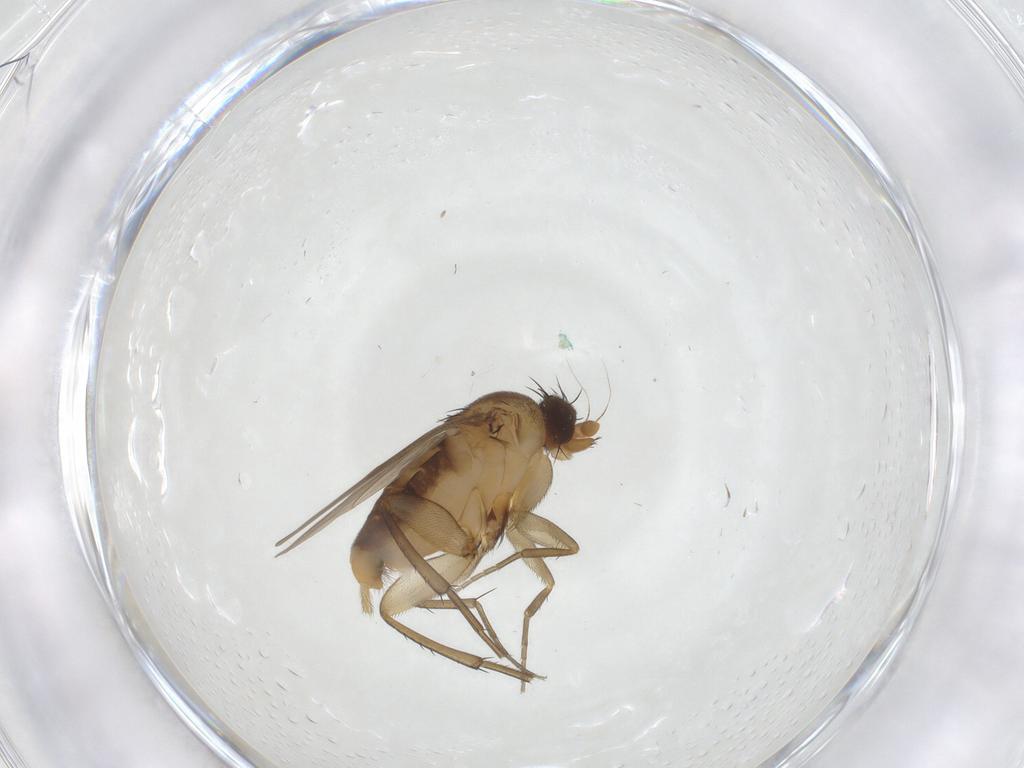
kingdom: Animalia
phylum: Arthropoda
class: Insecta
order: Diptera
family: Phoridae
